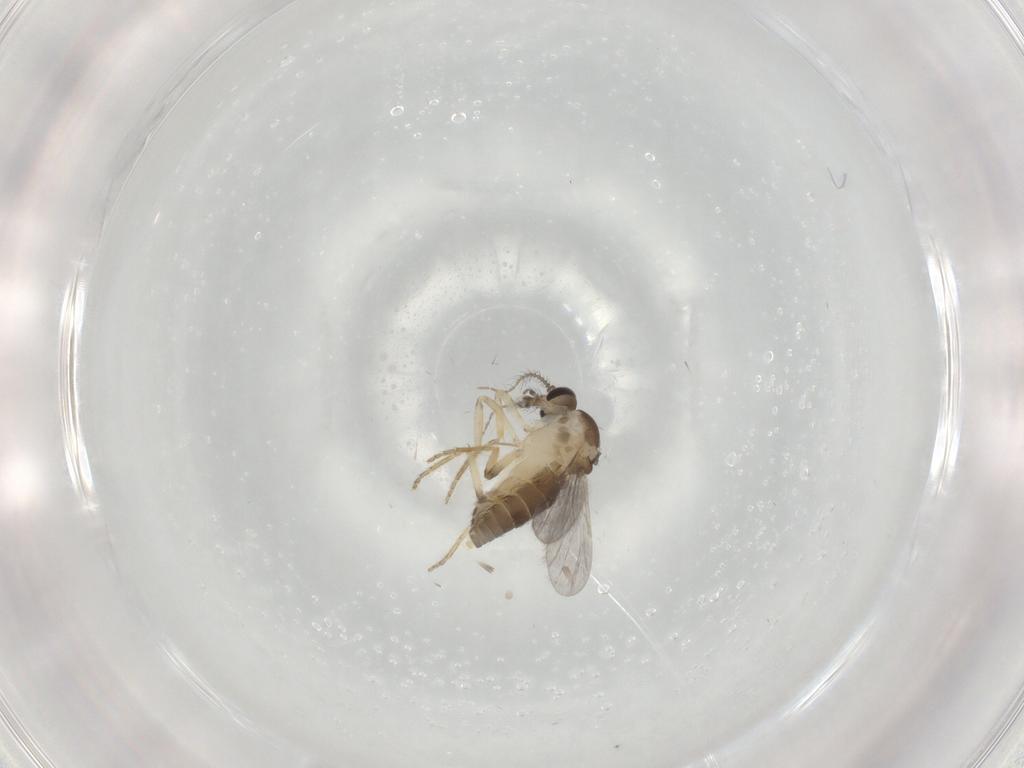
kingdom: Animalia
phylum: Arthropoda
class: Insecta
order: Diptera
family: Ceratopogonidae
